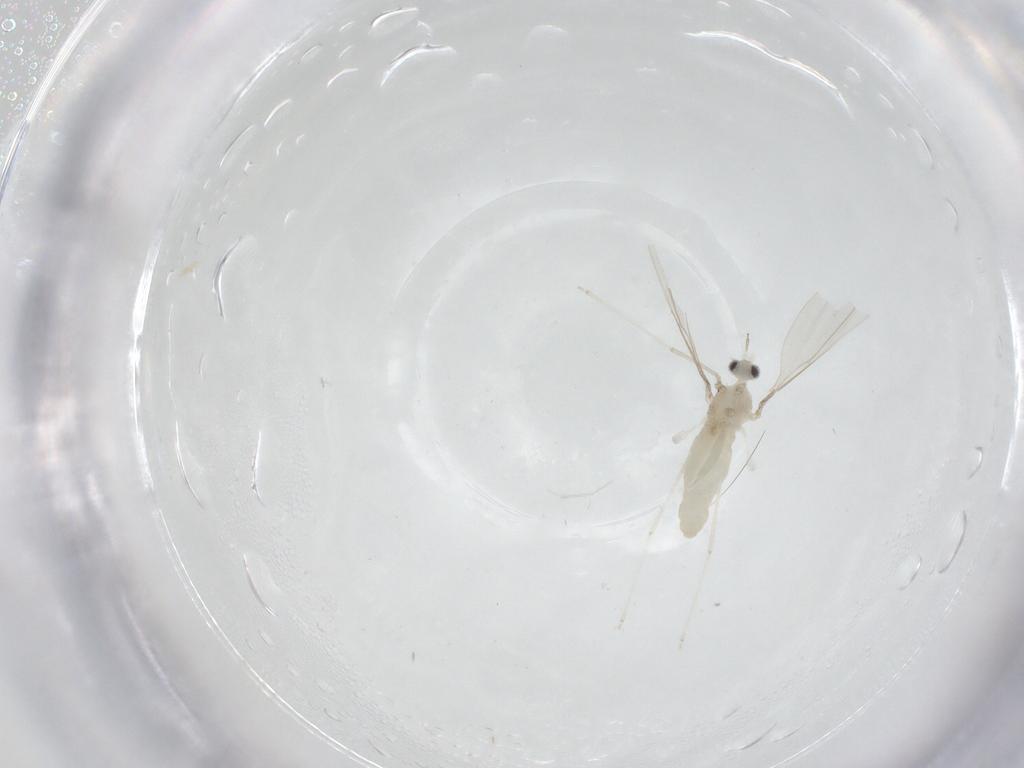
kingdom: Animalia
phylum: Arthropoda
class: Insecta
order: Diptera
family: Cecidomyiidae
